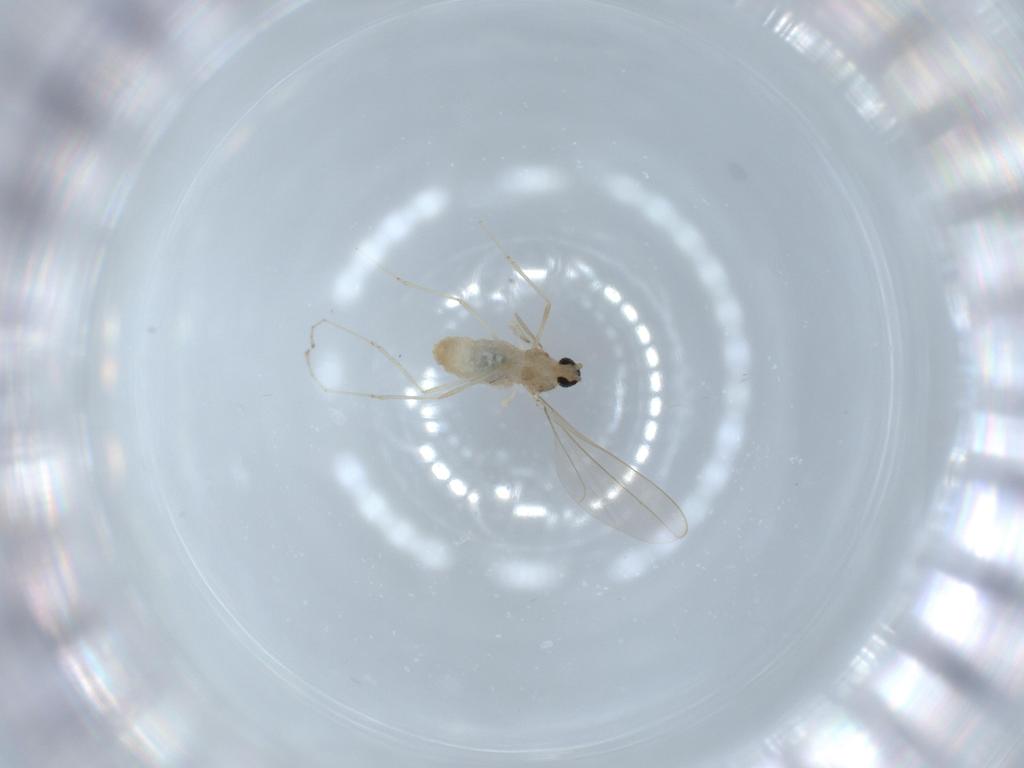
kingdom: Animalia
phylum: Arthropoda
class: Insecta
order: Diptera
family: Cecidomyiidae
